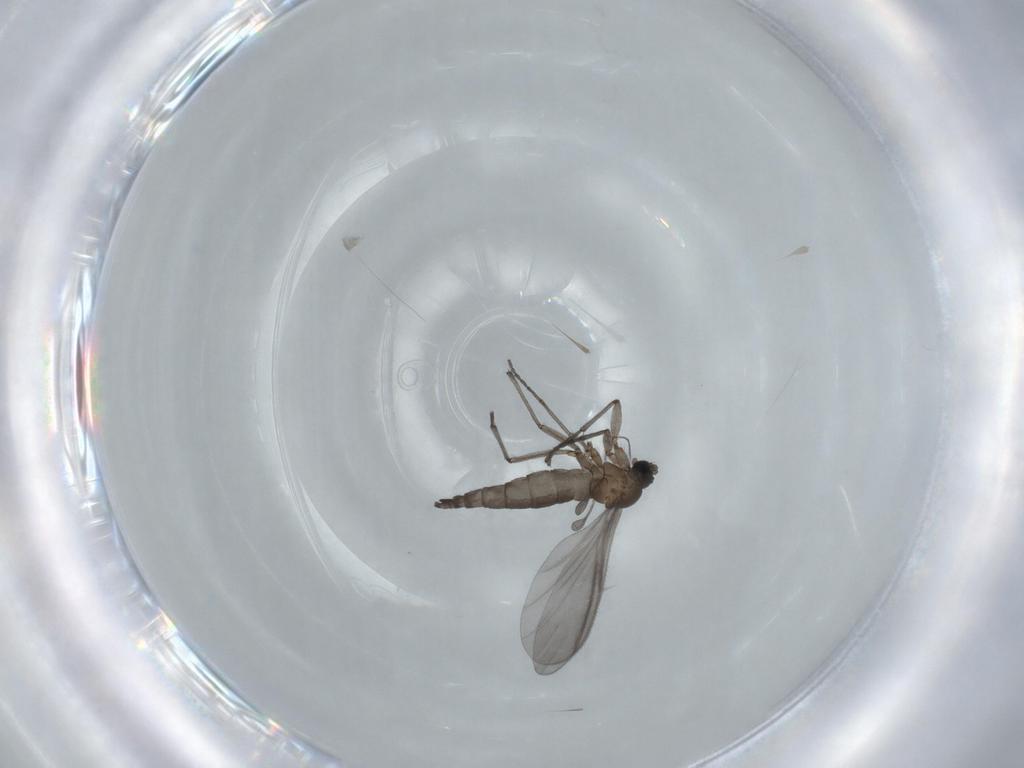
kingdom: Animalia
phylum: Arthropoda
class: Insecta
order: Diptera
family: Sciaridae
